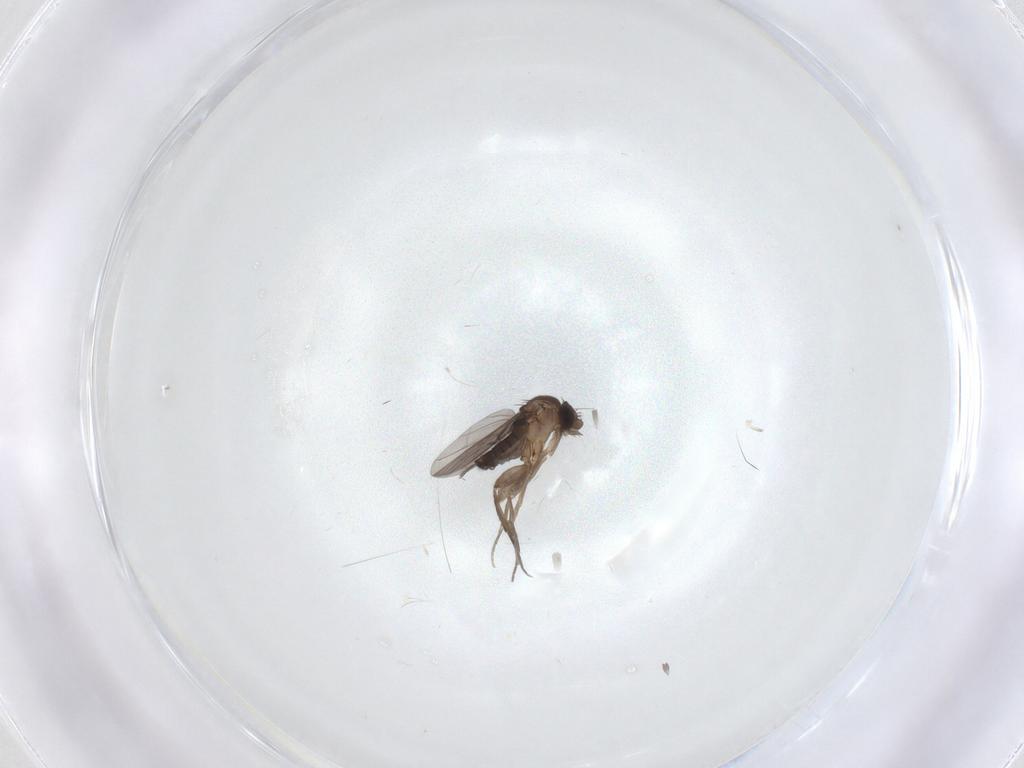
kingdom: Animalia
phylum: Arthropoda
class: Insecta
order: Diptera
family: Phoridae
